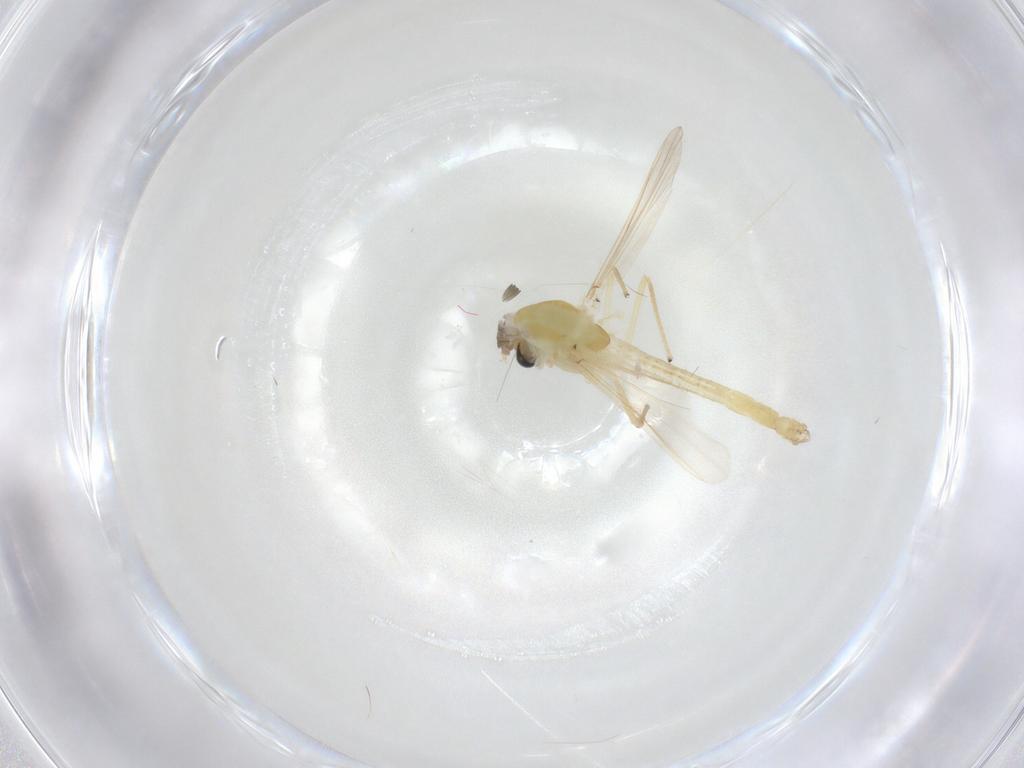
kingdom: Animalia
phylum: Arthropoda
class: Insecta
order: Diptera
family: Chironomidae
